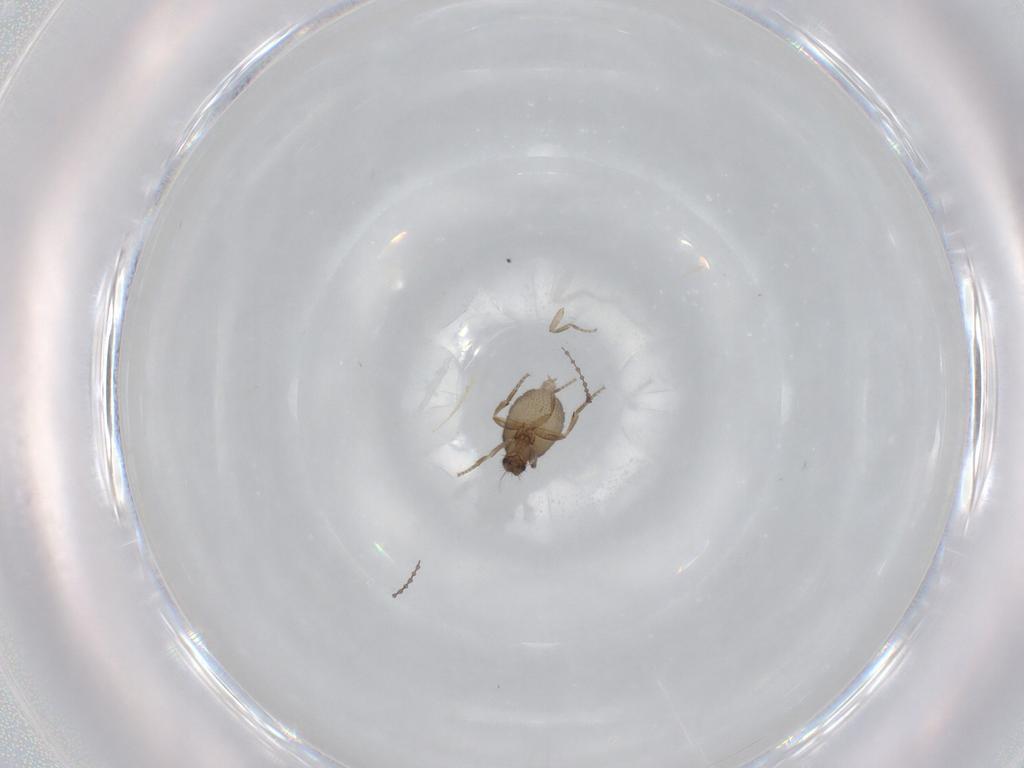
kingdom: Animalia
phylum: Arthropoda
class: Insecta
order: Diptera
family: Phoridae
